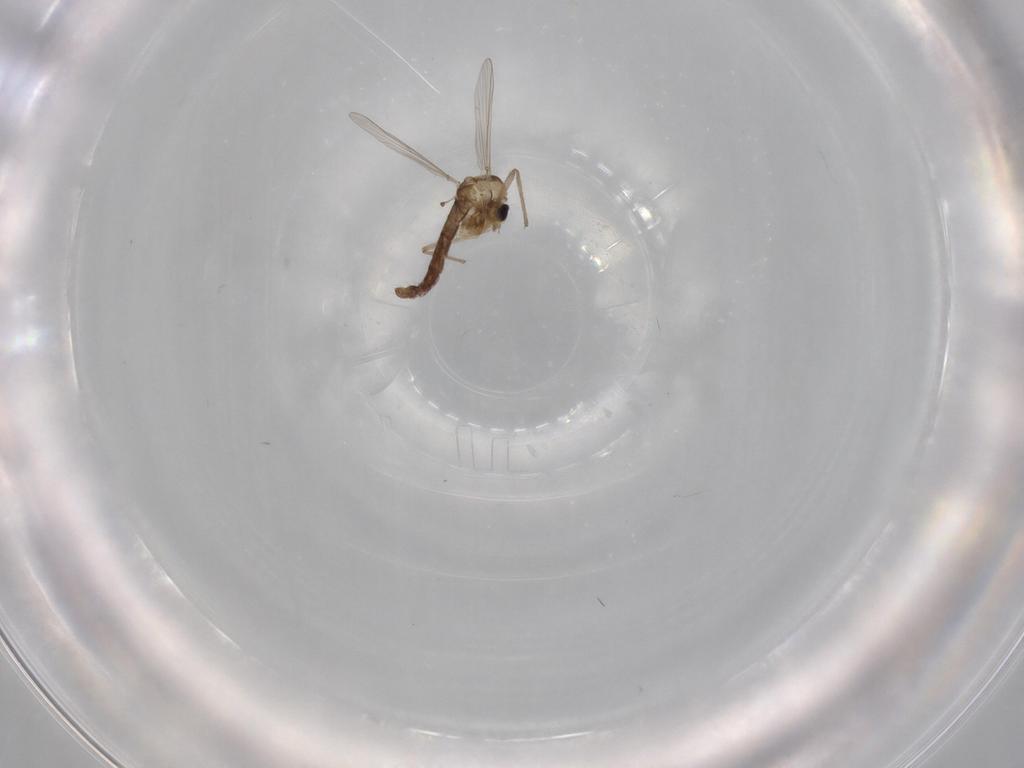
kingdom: Animalia
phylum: Arthropoda
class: Insecta
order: Diptera
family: Chironomidae
